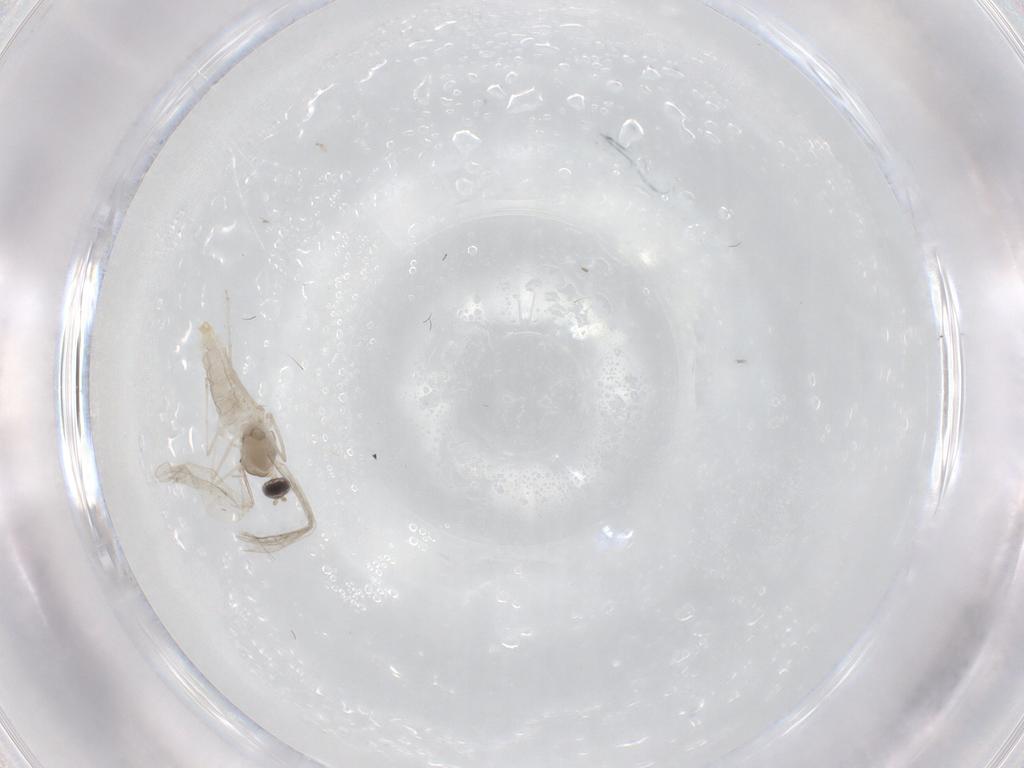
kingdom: Animalia
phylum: Arthropoda
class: Insecta
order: Diptera
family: Cecidomyiidae
